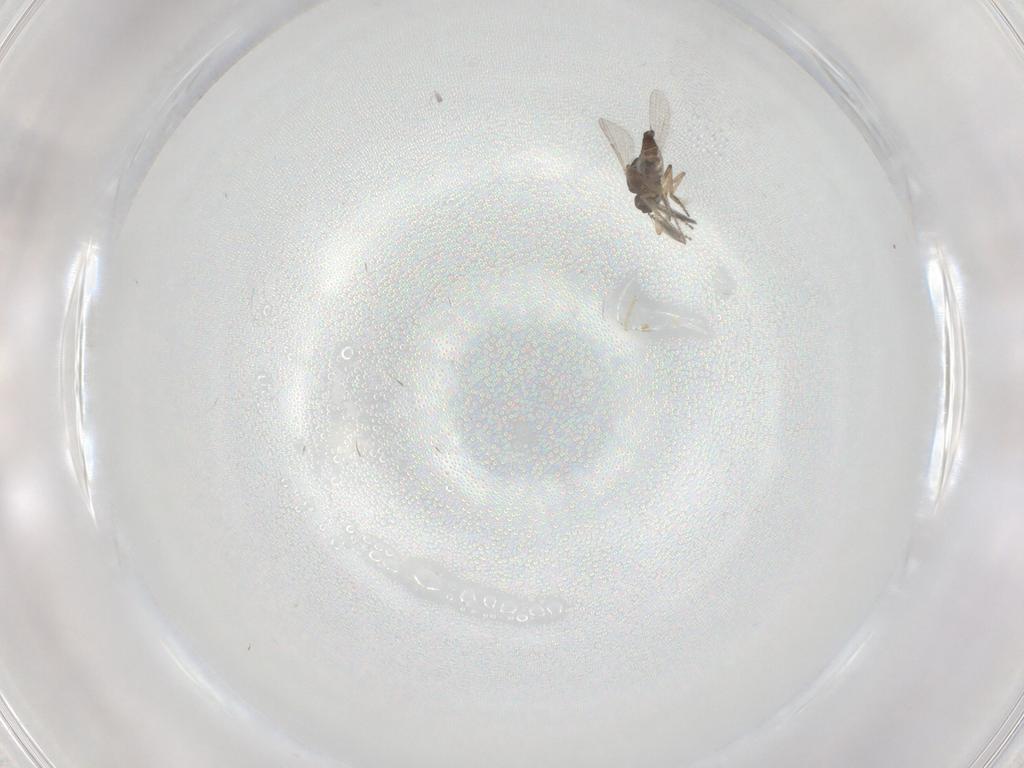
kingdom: Animalia
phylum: Arthropoda
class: Insecta
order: Diptera
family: Ceratopogonidae
